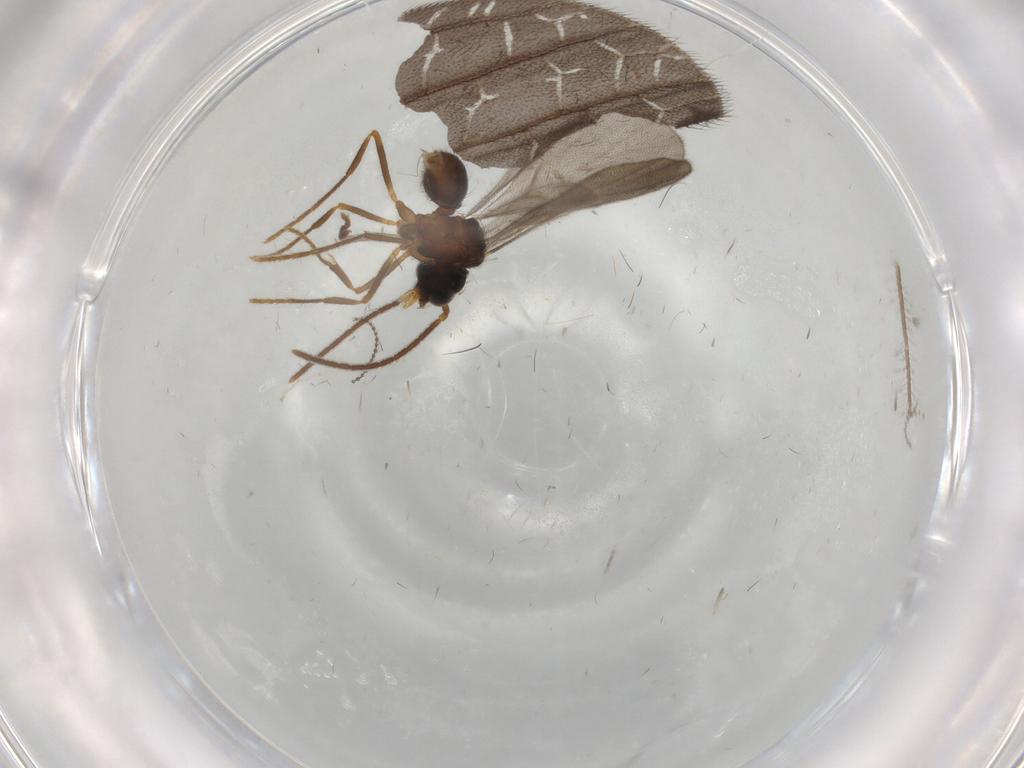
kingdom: Animalia
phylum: Arthropoda
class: Insecta
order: Hymenoptera
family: Formicidae
